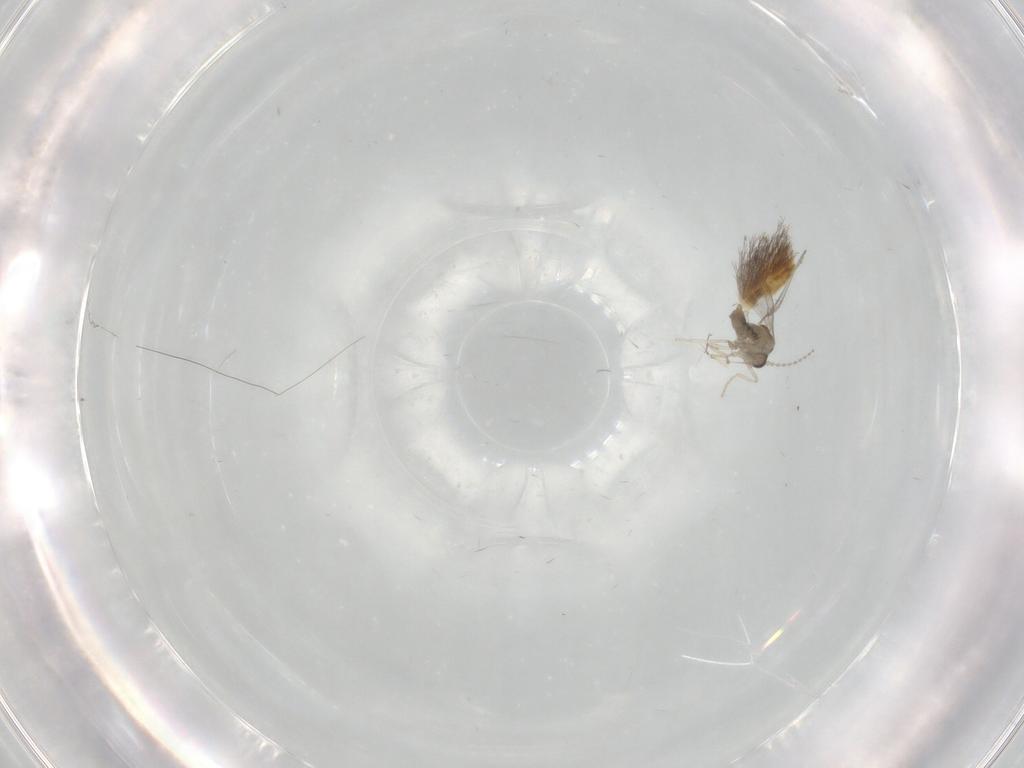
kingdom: Animalia
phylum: Arthropoda
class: Insecta
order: Diptera
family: Cecidomyiidae
